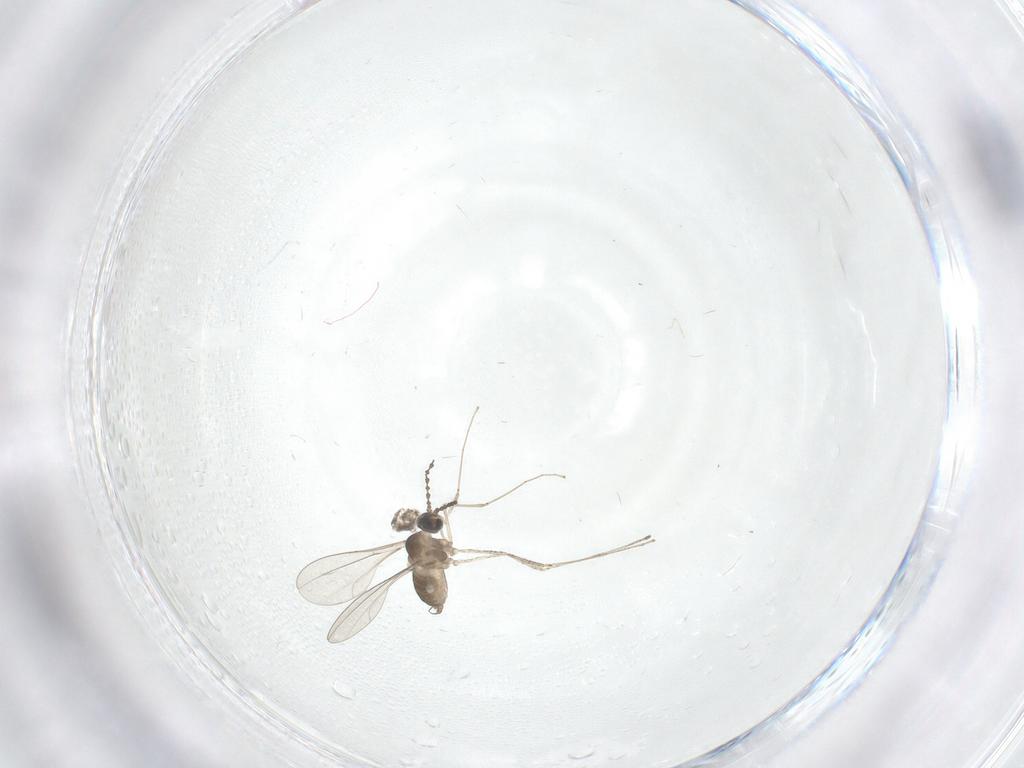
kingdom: Animalia
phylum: Arthropoda
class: Insecta
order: Diptera
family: Cecidomyiidae
